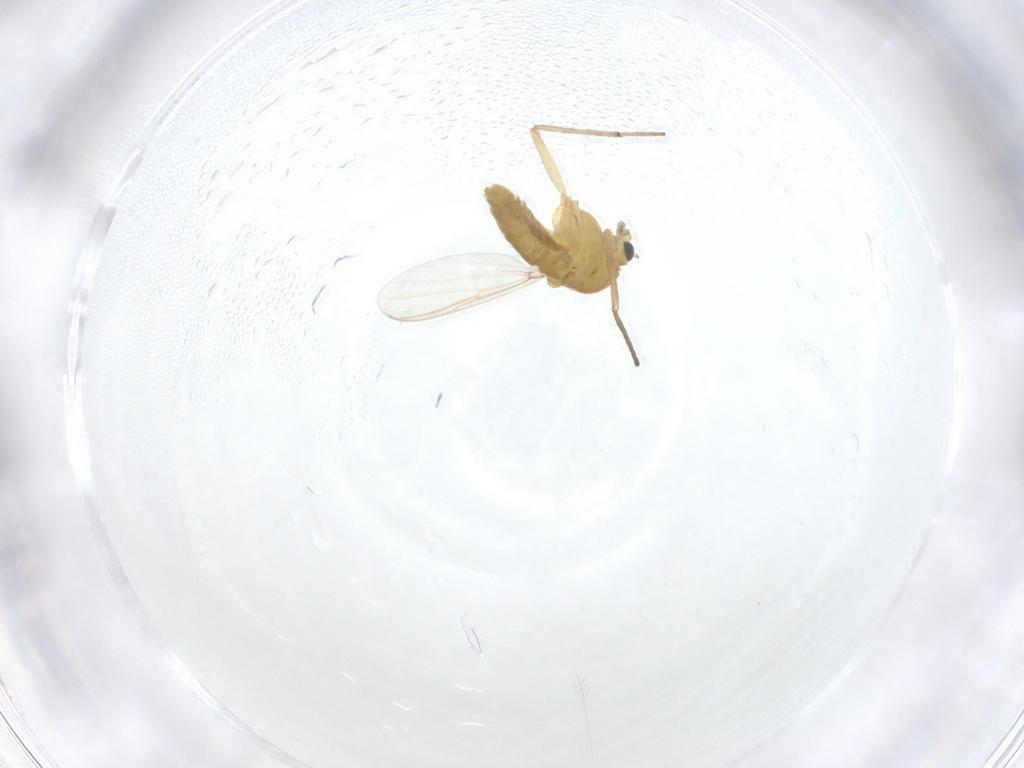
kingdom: Animalia
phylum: Arthropoda
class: Insecta
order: Diptera
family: Chironomidae
